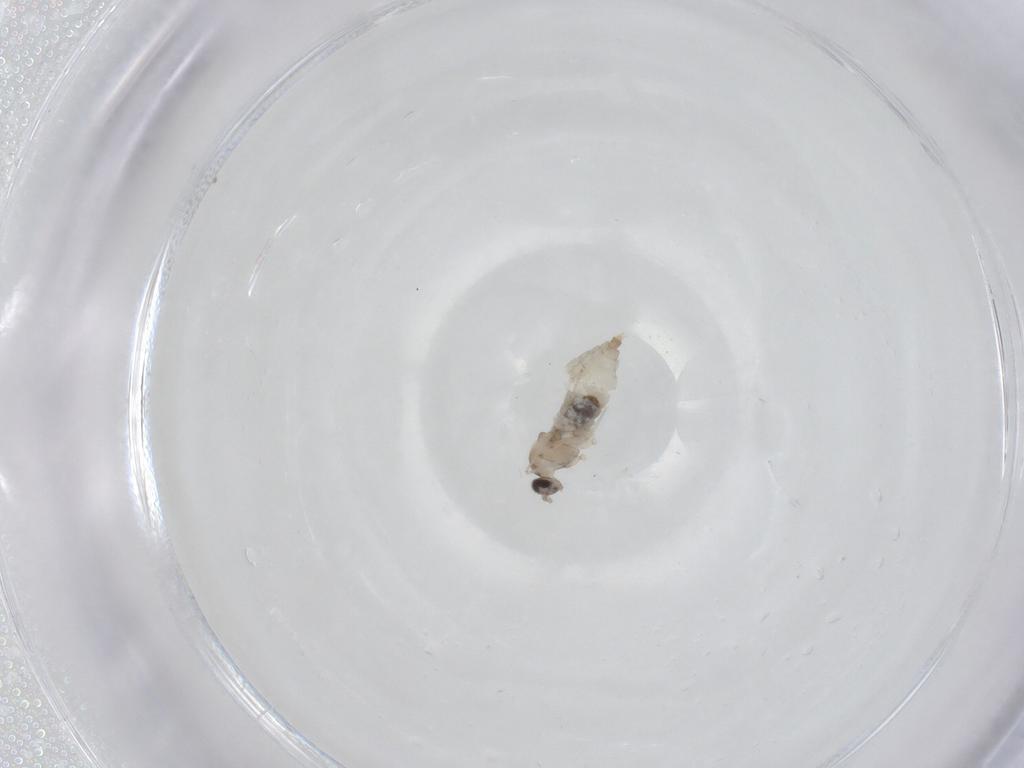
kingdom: Animalia
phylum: Arthropoda
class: Insecta
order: Diptera
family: Cecidomyiidae
